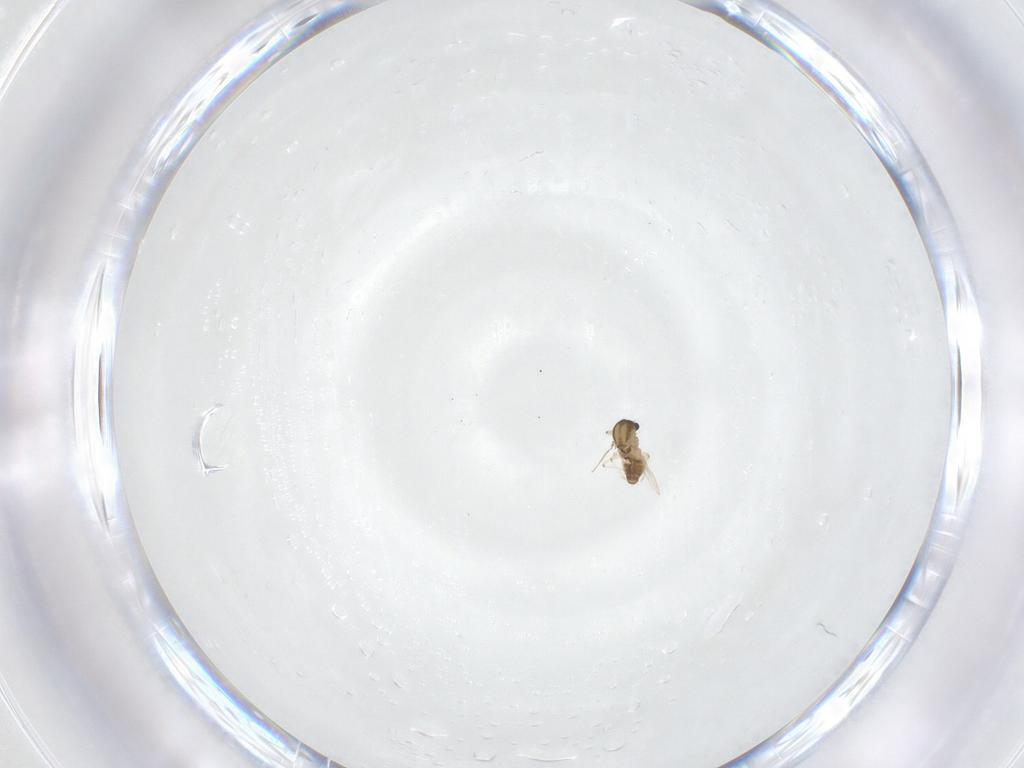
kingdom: Animalia
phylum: Arthropoda
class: Insecta
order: Diptera
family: Chironomidae
